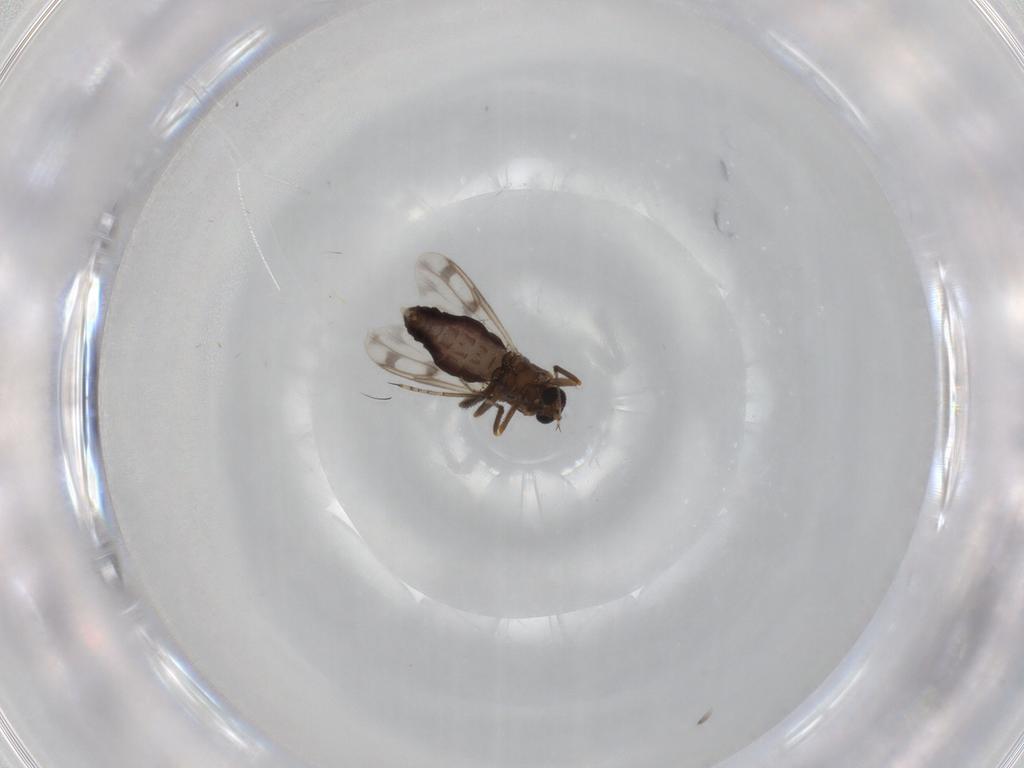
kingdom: Animalia
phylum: Arthropoda
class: Insecta
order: Diptera
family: Ceratopogonidae
